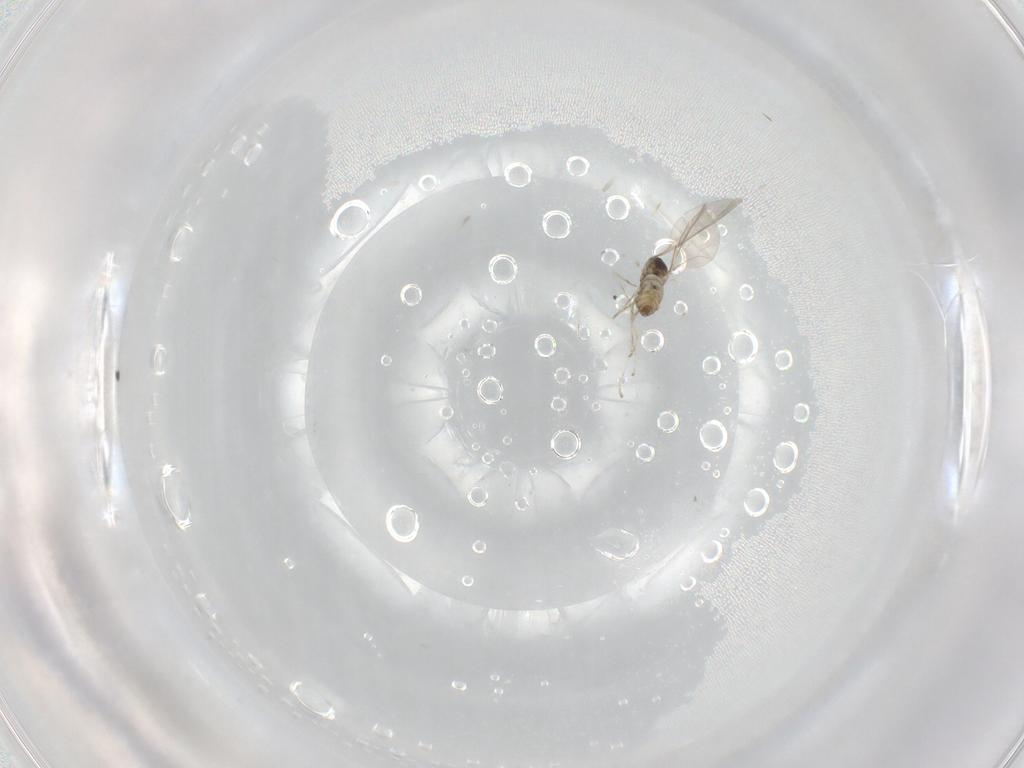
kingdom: Animalia
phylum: Arthropoda
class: Insecta
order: Diptera
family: Cecidomyiidae
